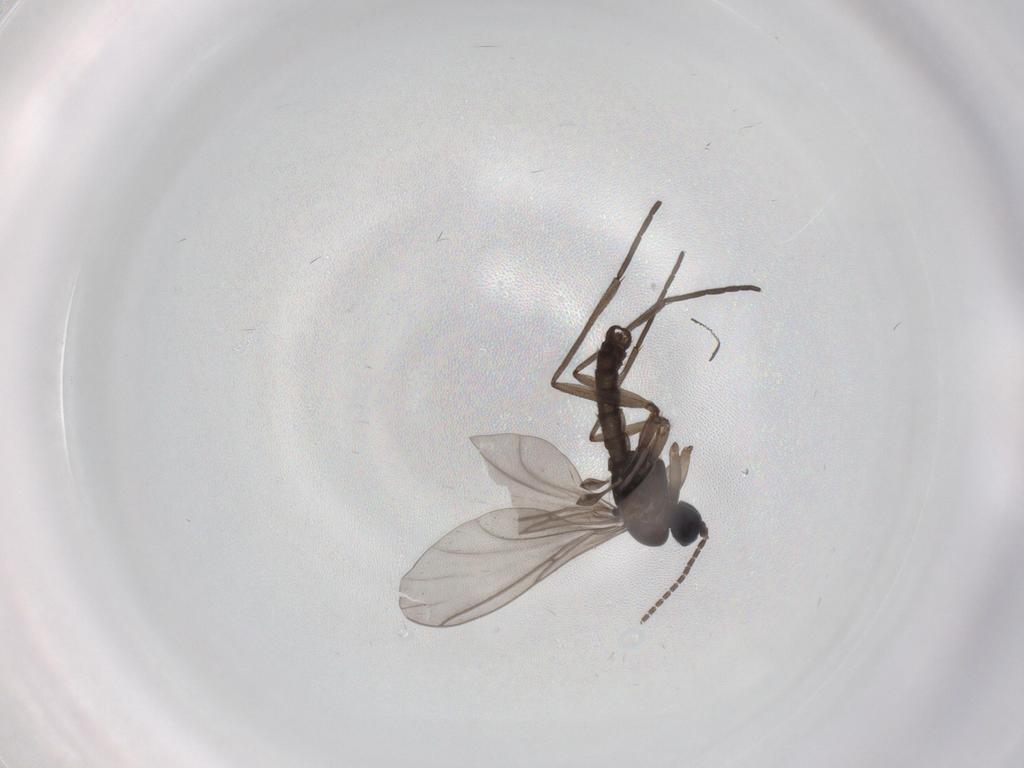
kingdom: Animalia
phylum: Arthropoda
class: Insecta
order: Diptera
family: Sciaridae
